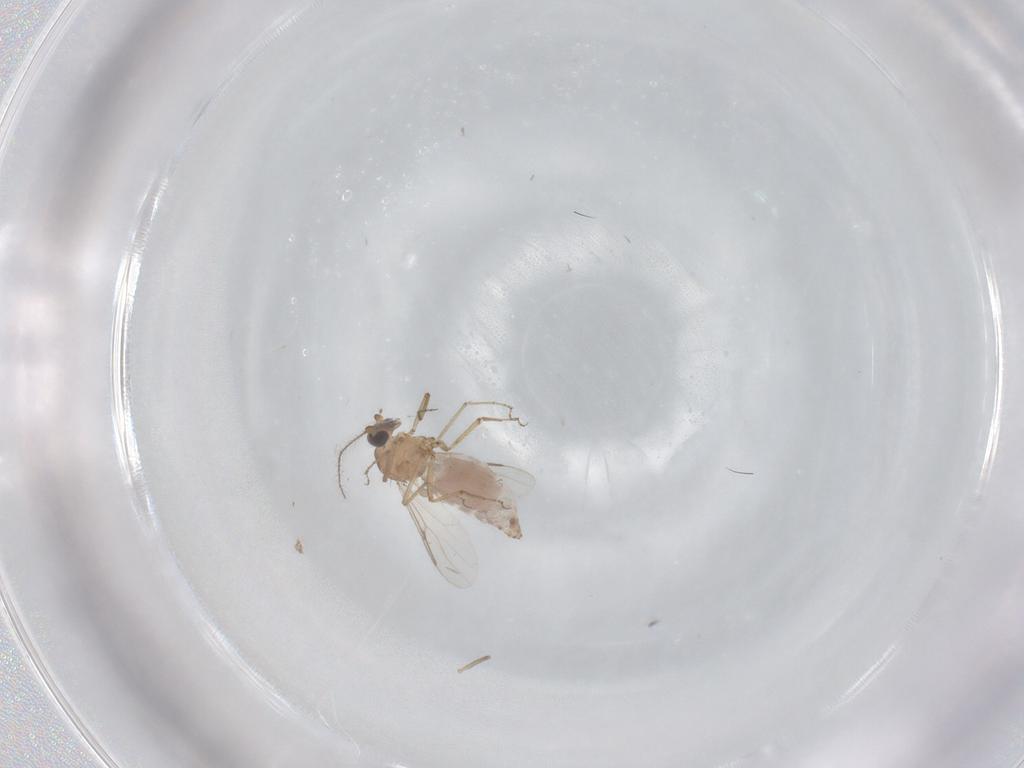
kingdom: Animalia
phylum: Arthropoda
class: Insecta
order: Diptera
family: Tipulidae
